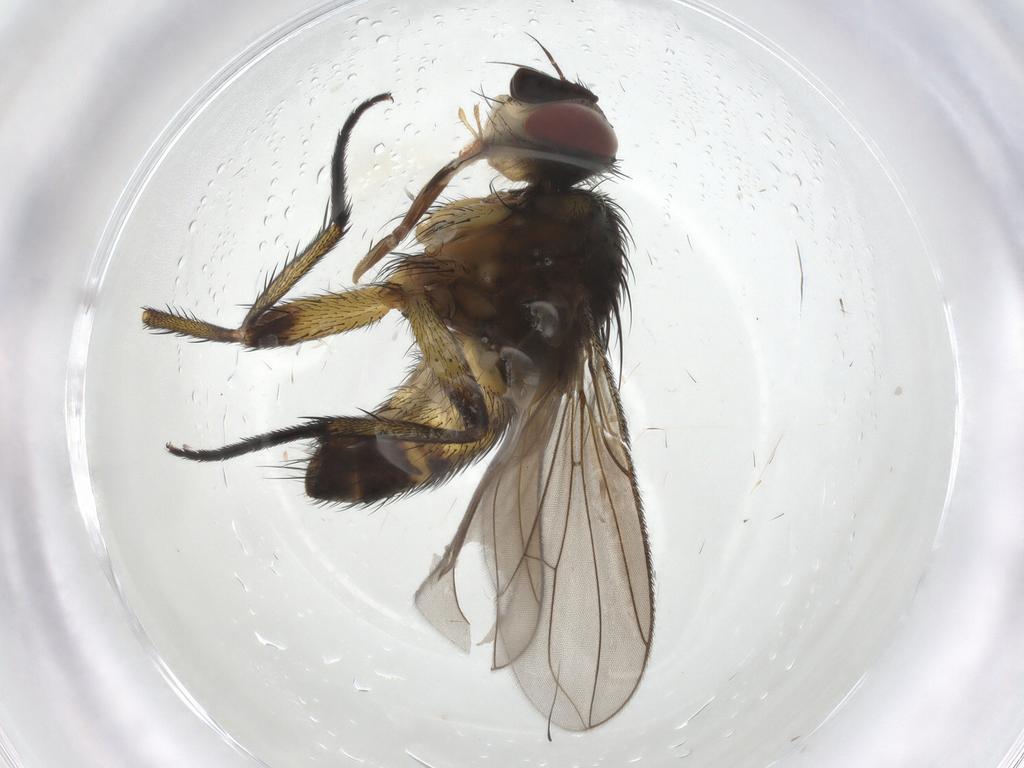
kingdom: Animalia
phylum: Arthropoda
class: Insecta
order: Diptera
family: Tachinidae
